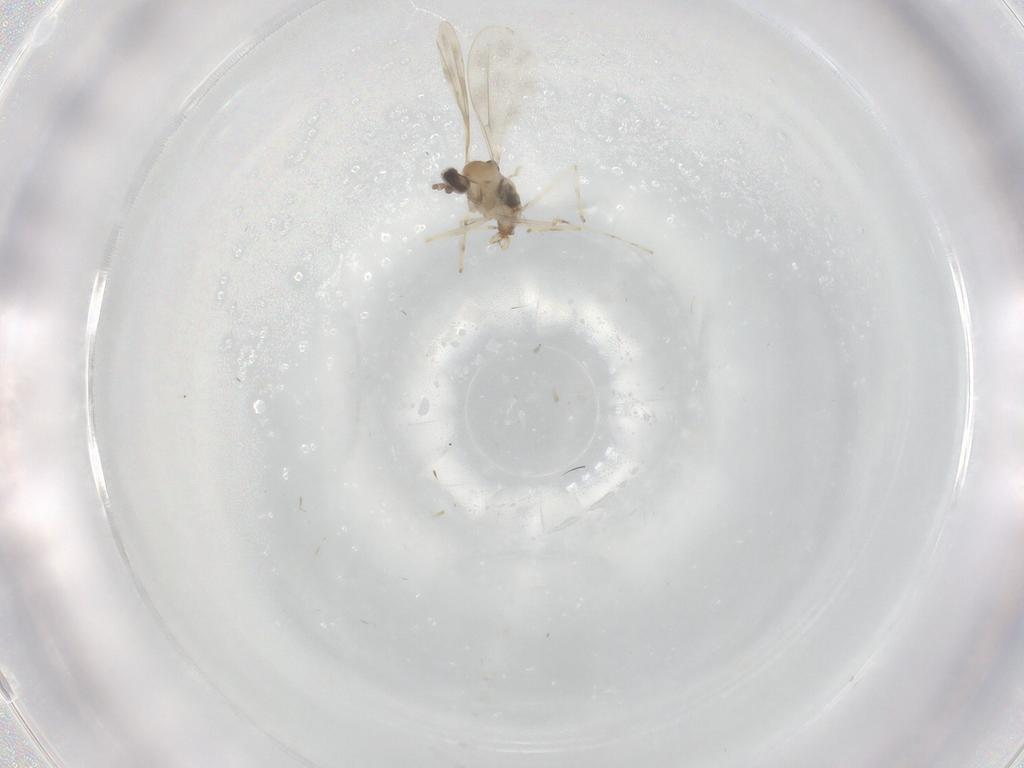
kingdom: Animalia
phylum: Arthropoda
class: Insecta
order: Diptera
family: Cecidomyiidae
